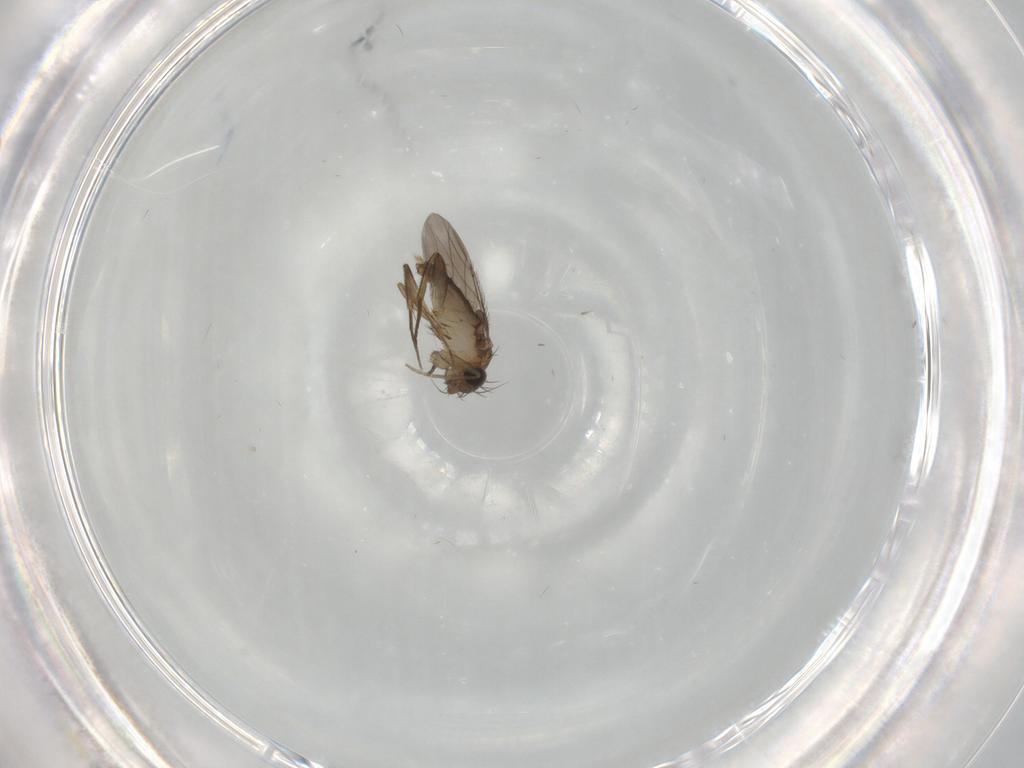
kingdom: Animalia
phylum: Arthropoda
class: Insecta
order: Diptera
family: Phoridae
